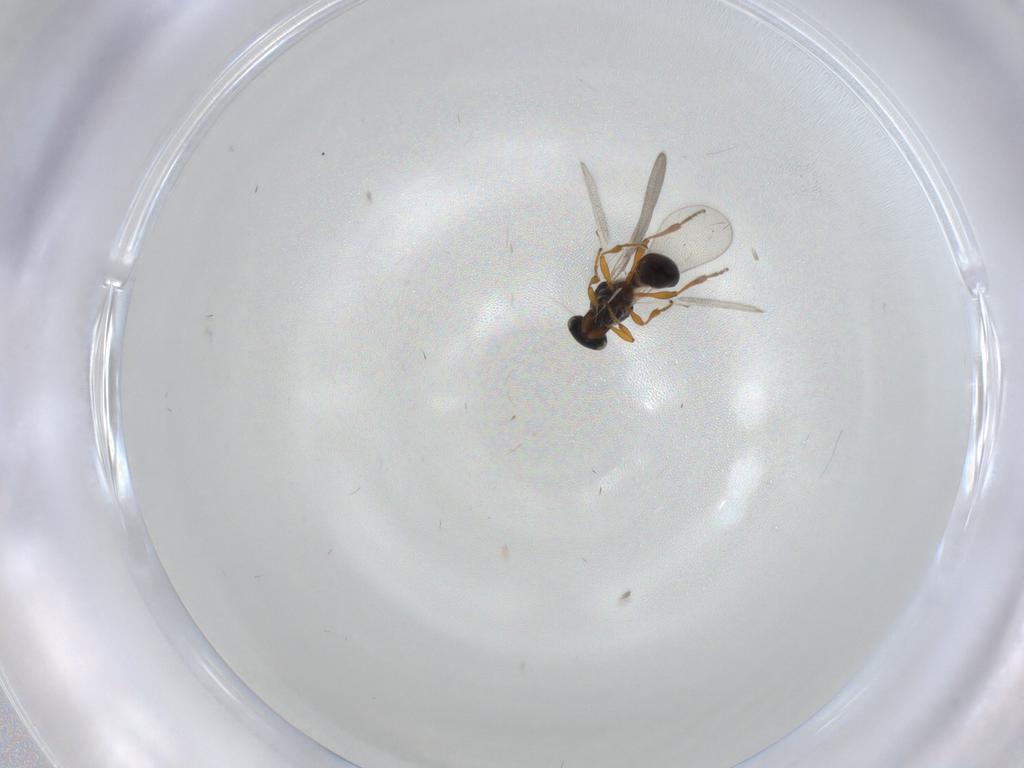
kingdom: Animalia
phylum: Arthropoda
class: Insecta
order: Hymenoptera
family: Platygastridae
